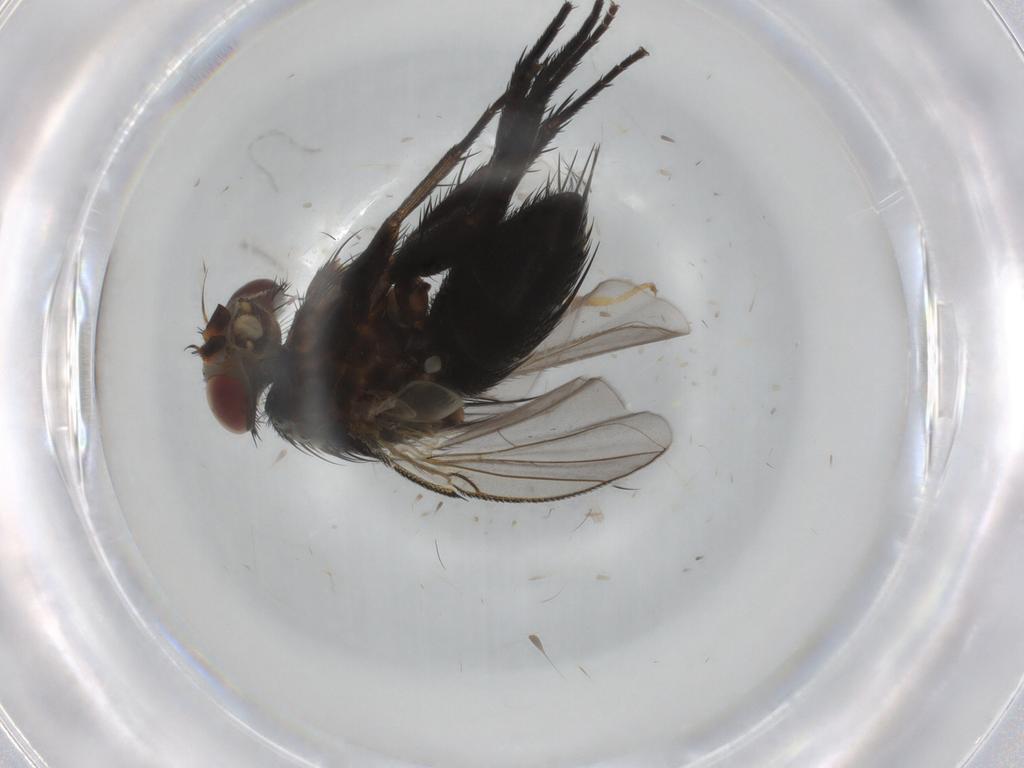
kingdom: Animalia
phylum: Arthropoda
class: Insecta
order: Diptera
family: Tachinidae
